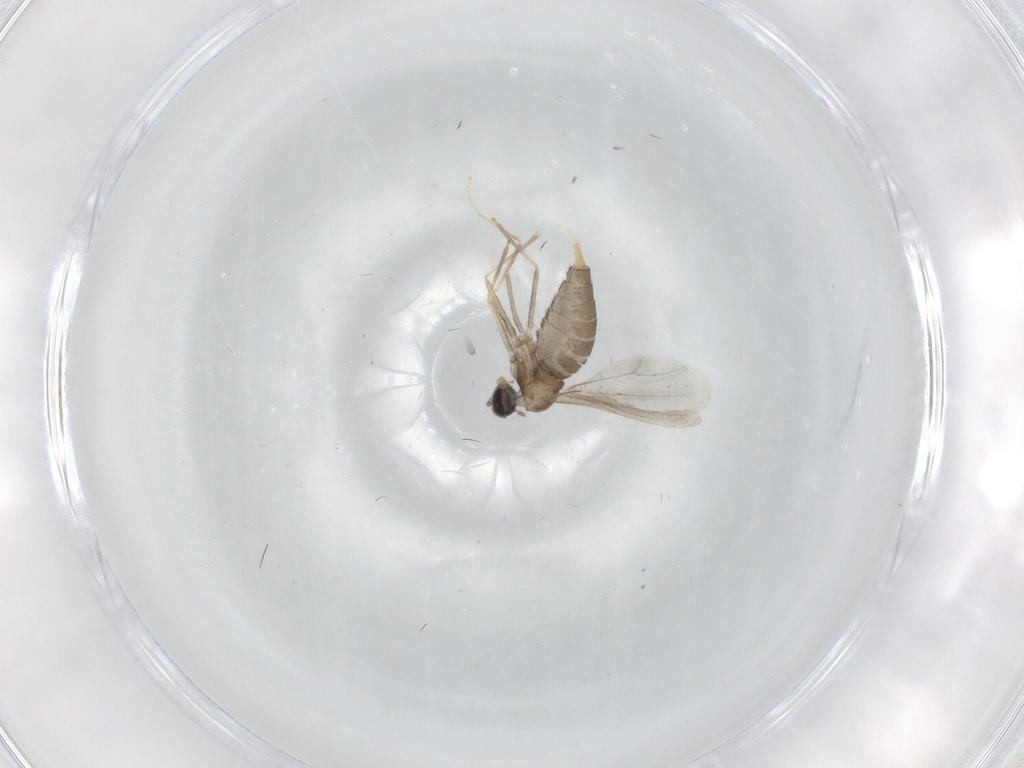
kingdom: Animalia
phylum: Arthropoda
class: Insecta
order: Diptera
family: Cecidomyiidae
